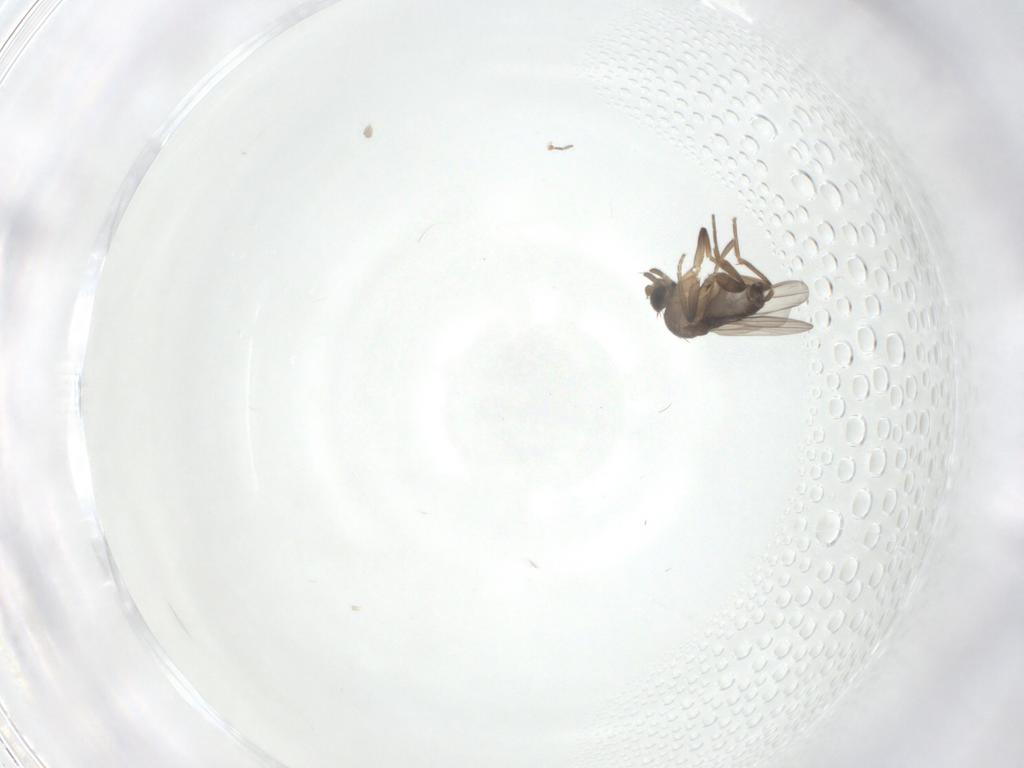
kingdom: Animalia
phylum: Arthropoda
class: Insecta
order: Diptera
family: Phoridae
